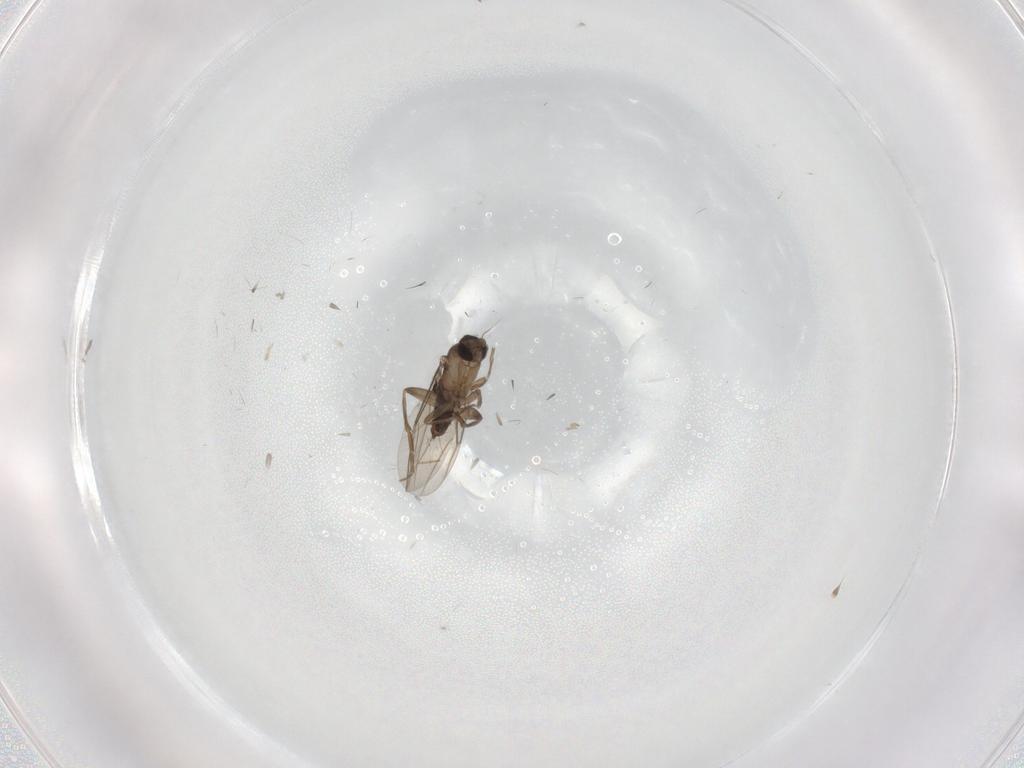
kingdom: Animalia
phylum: Arthropoda
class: Insecta
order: Diptera
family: Phoridae
